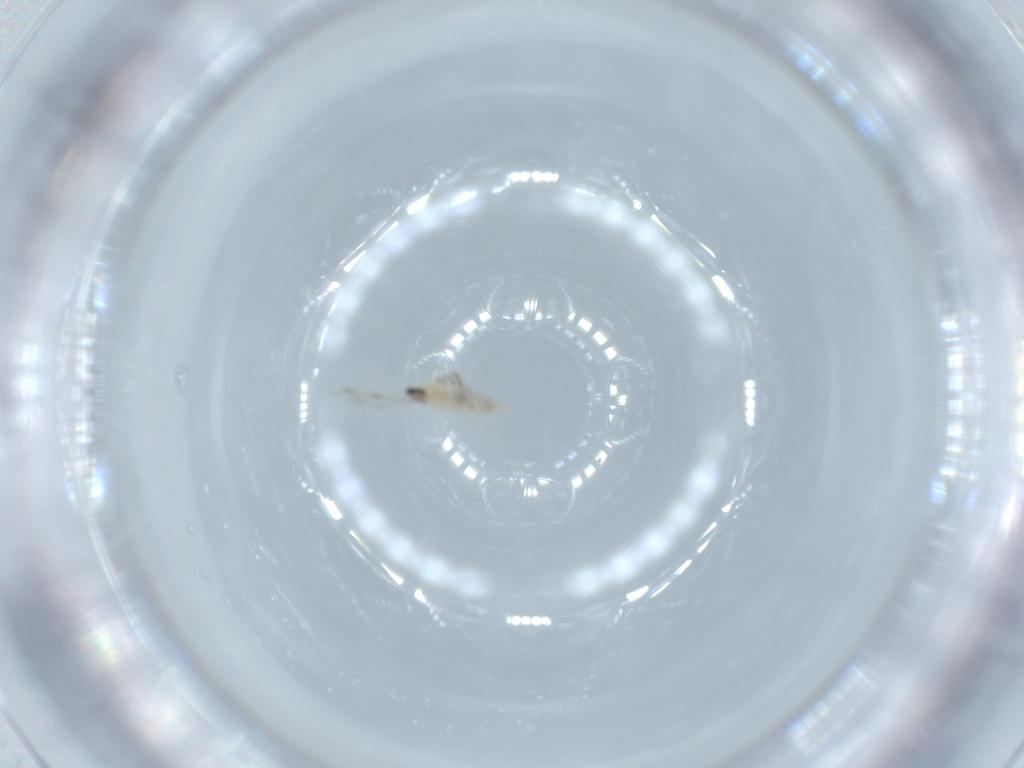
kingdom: Animalia
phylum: Arthropoda
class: Insecta
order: Diptera
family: Cecidomyiidae
